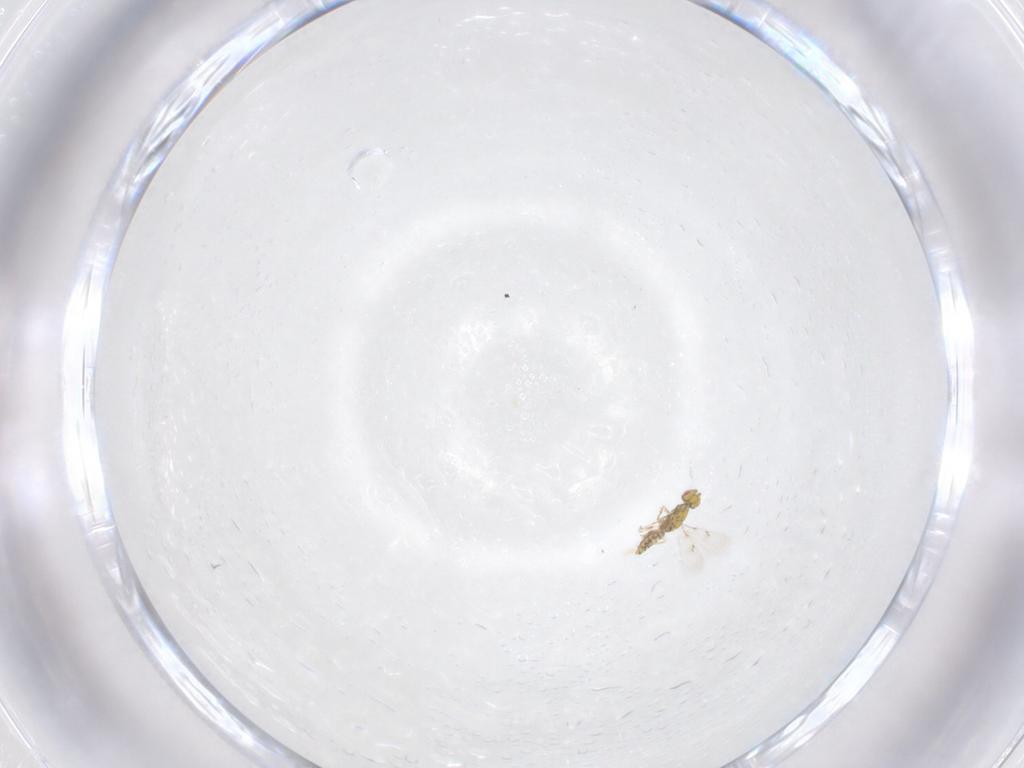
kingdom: Animalia
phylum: Arthropoda
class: Insecta
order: Hymenoptera
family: Eulophidae
